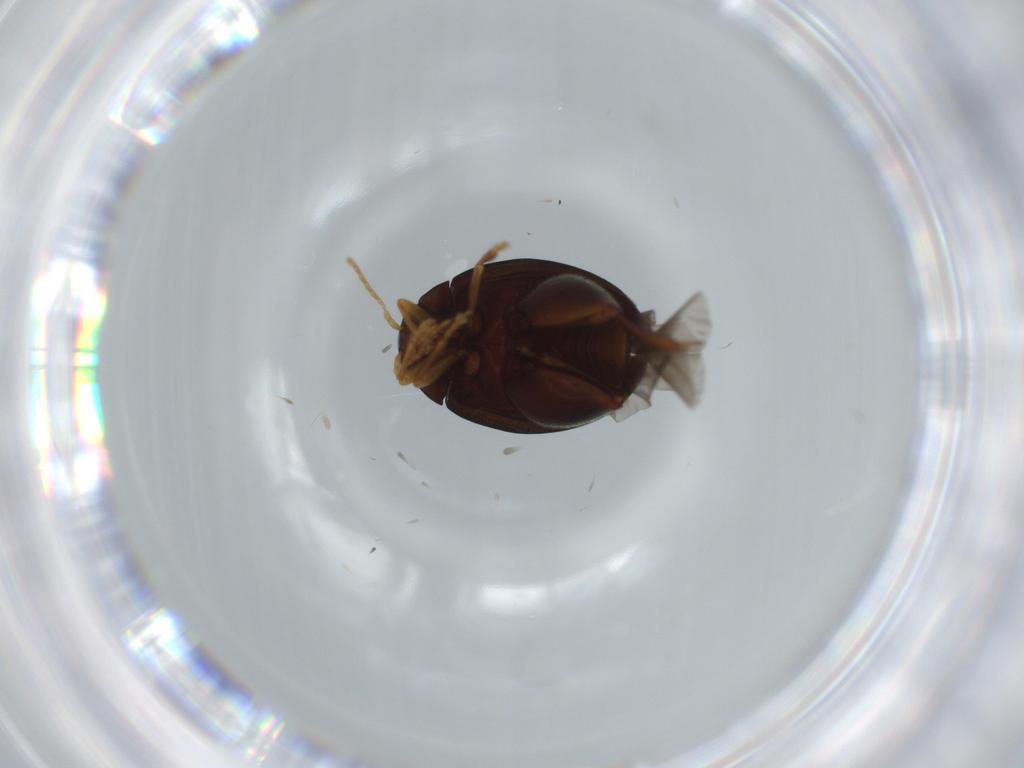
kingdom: Animalia
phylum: Arthropoda
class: Insecta
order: Coleoptera
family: Chrysomelidae
